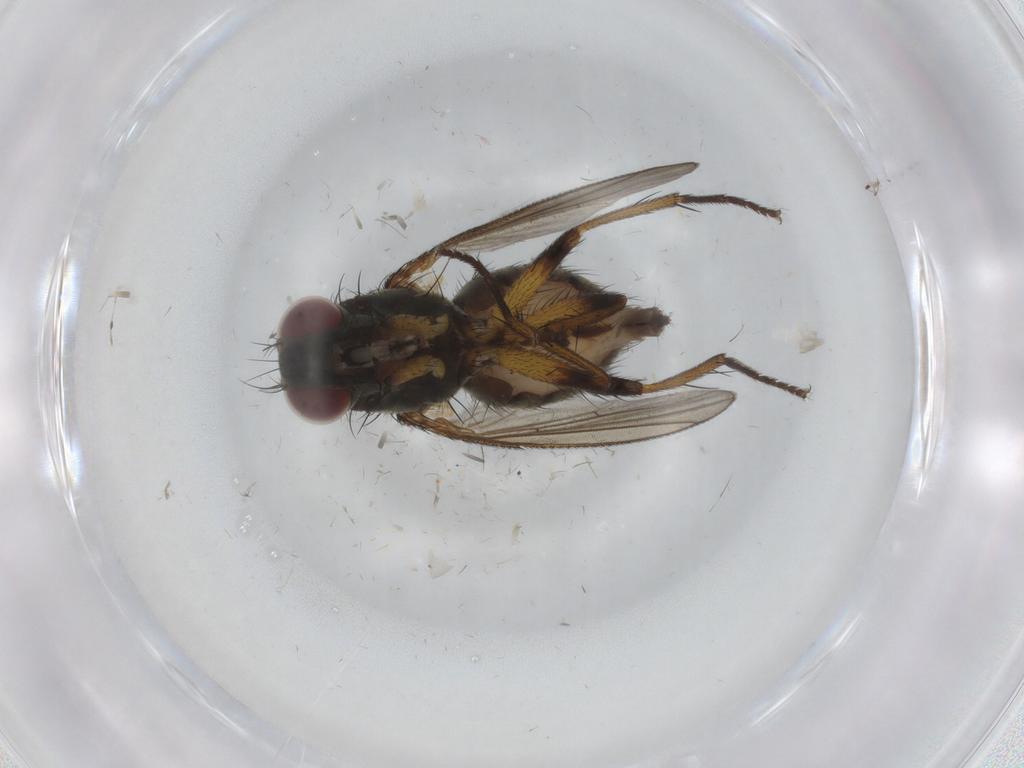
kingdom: Animalia
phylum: Arthropoda
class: Insecta
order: Diptera
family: Muscidae
